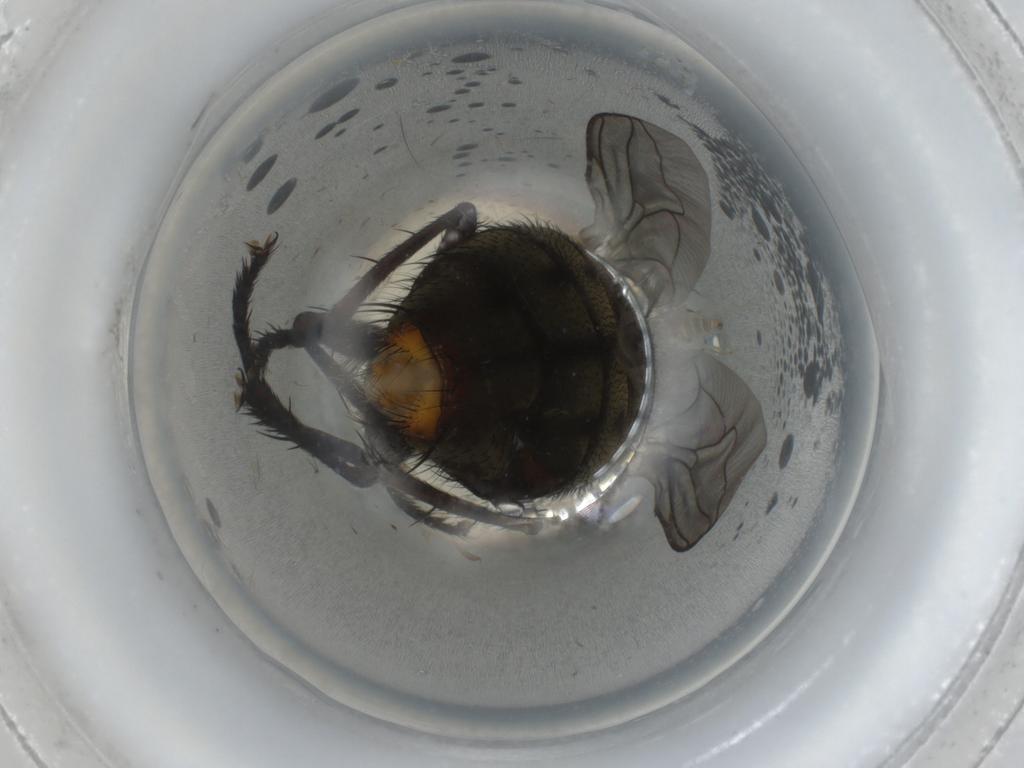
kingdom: Animalia
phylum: Arthropoda
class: Insecta
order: Diptera
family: Sarcophagidae
